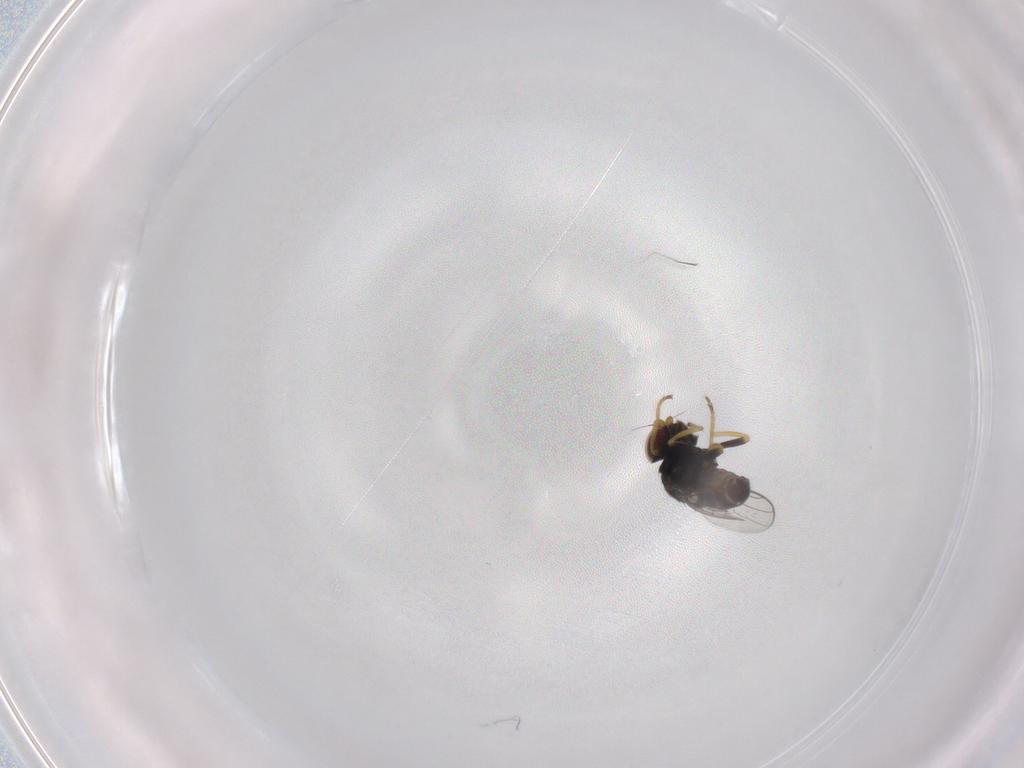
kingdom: Animalia
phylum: Arthropoda
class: Insecta
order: Diptera
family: Chloropidae
